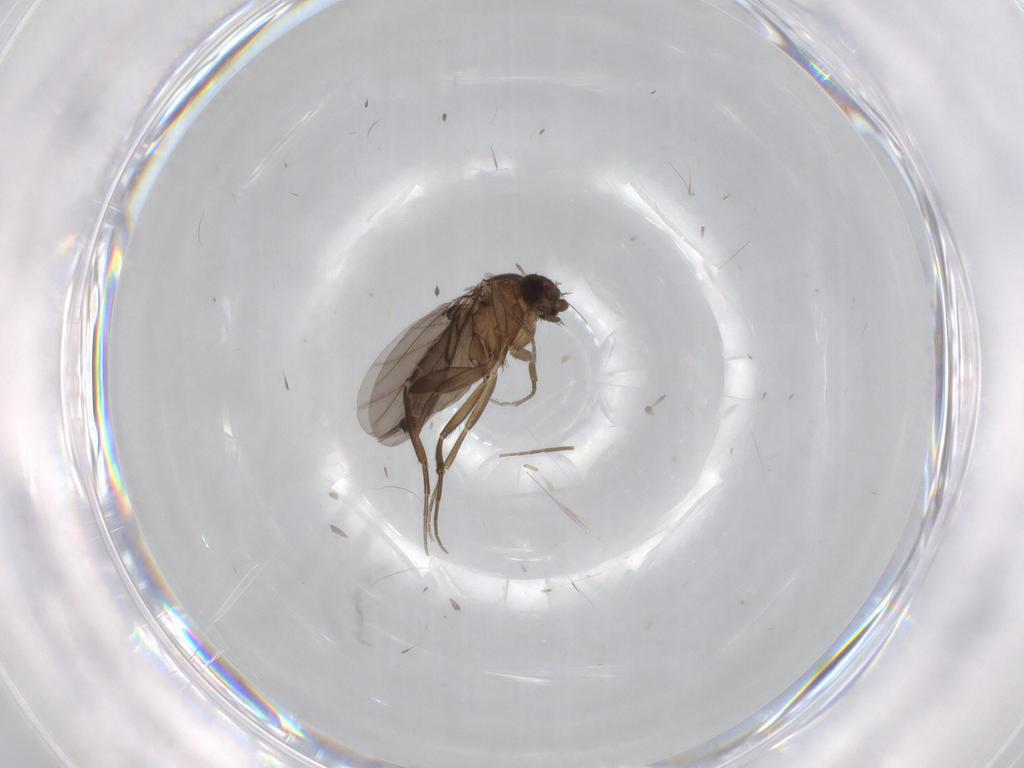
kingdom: Animalia
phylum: Arthropoda
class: Insecta
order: Diptera
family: Phoridae
